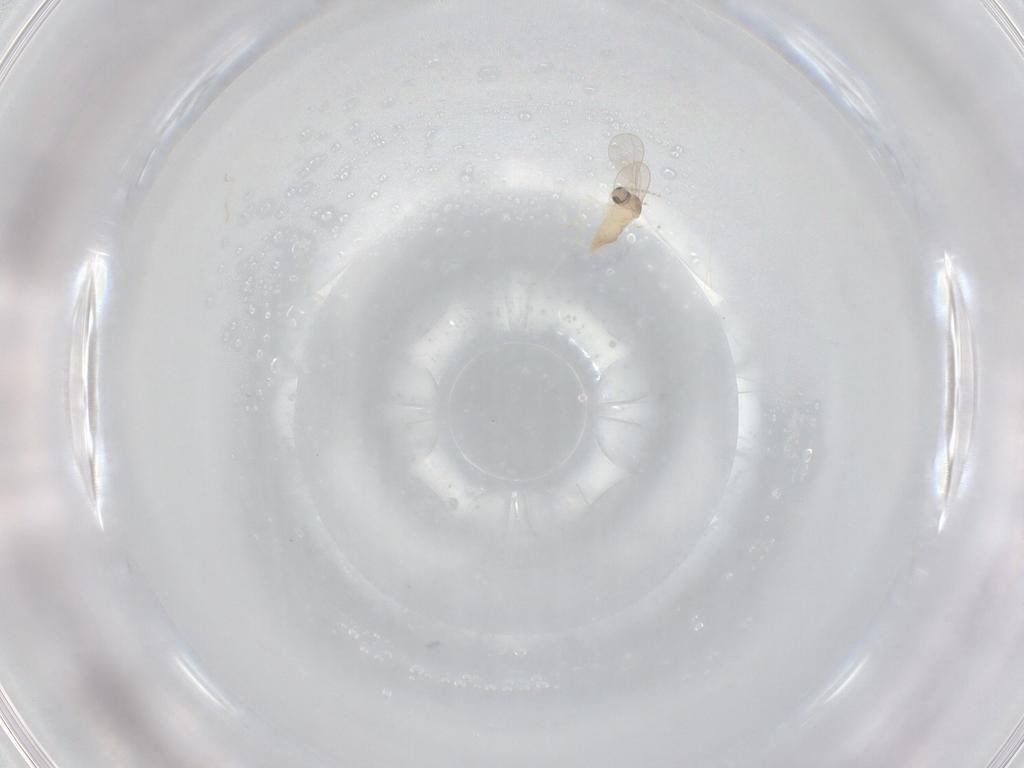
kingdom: Animalia
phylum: Arthropoda
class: Insecta
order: Diptera
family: Cecidomyiidae
